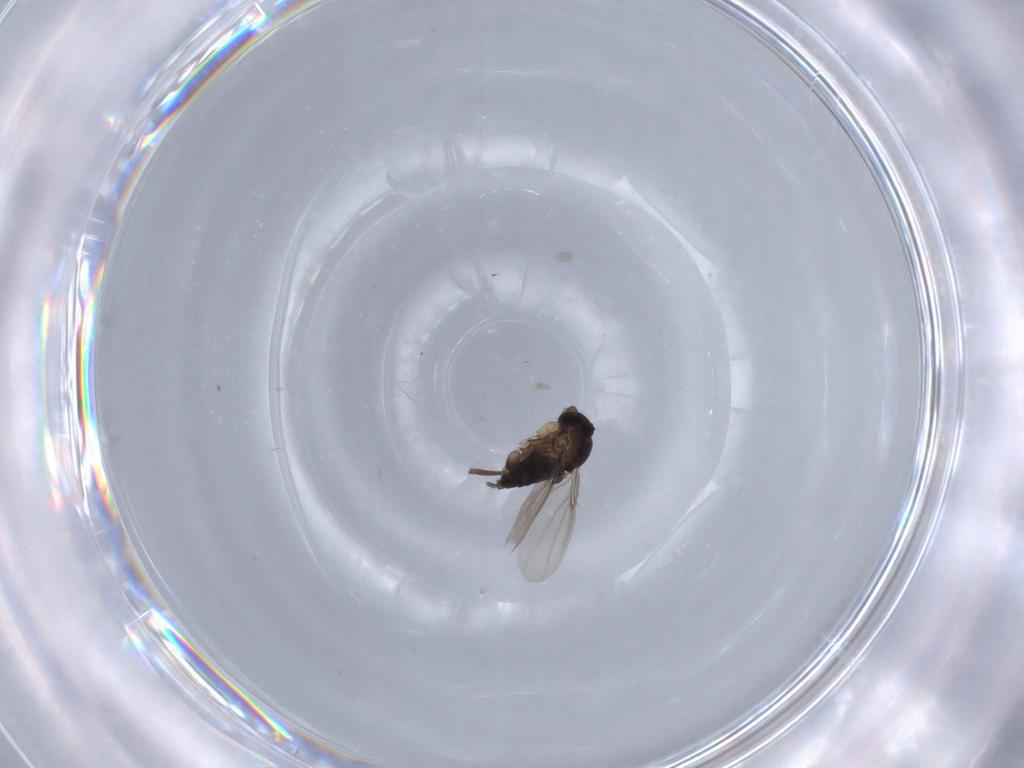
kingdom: Animalia
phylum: Arthropoda
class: Insecta
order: Diptera
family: Phoridae
